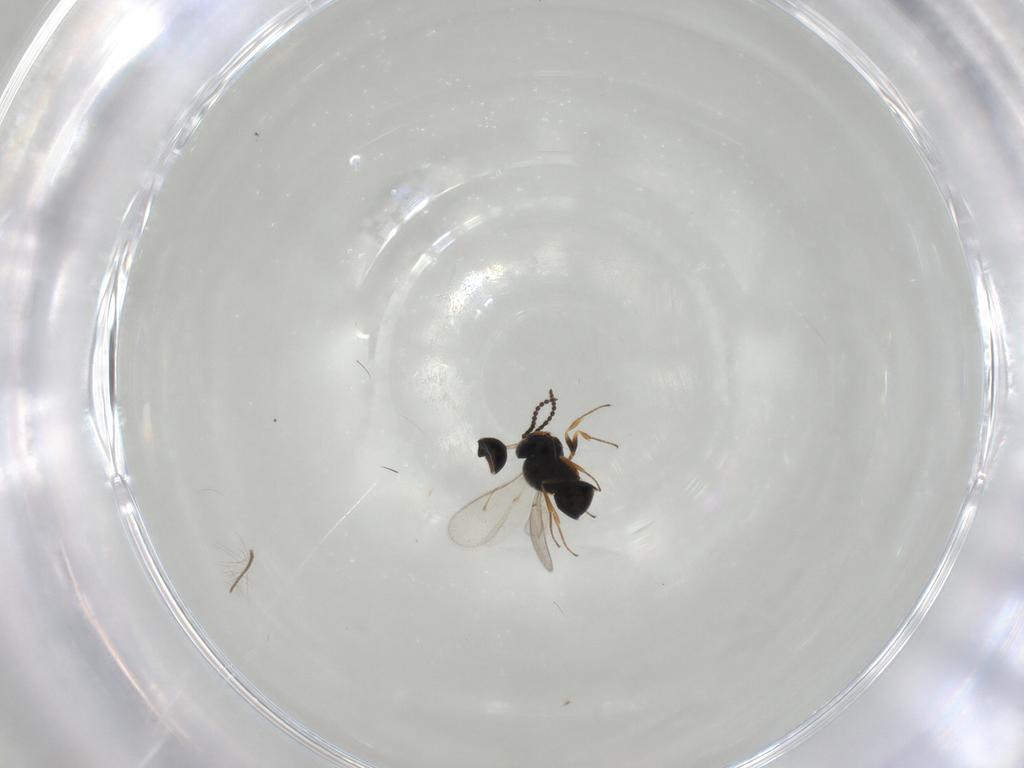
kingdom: Animalia
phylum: Arthropoda
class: Insecta
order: Hymenoptera
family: Scelionidae
